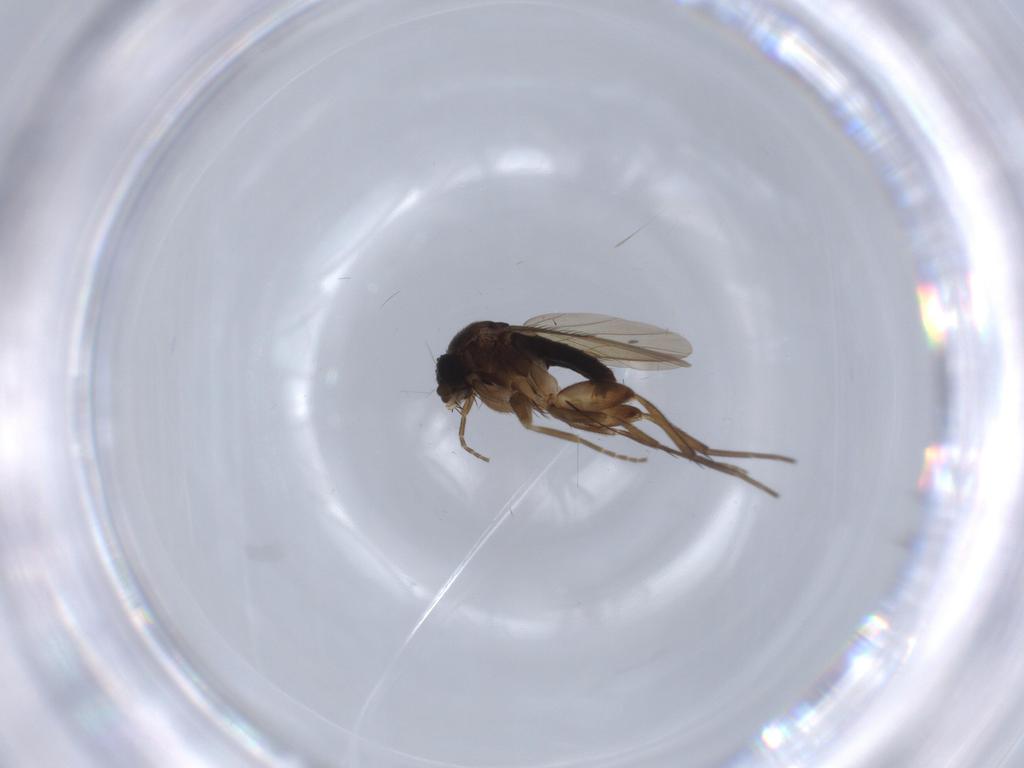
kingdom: Animalia
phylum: Arthropoda
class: Insecta
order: Diptera
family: Phoridae
